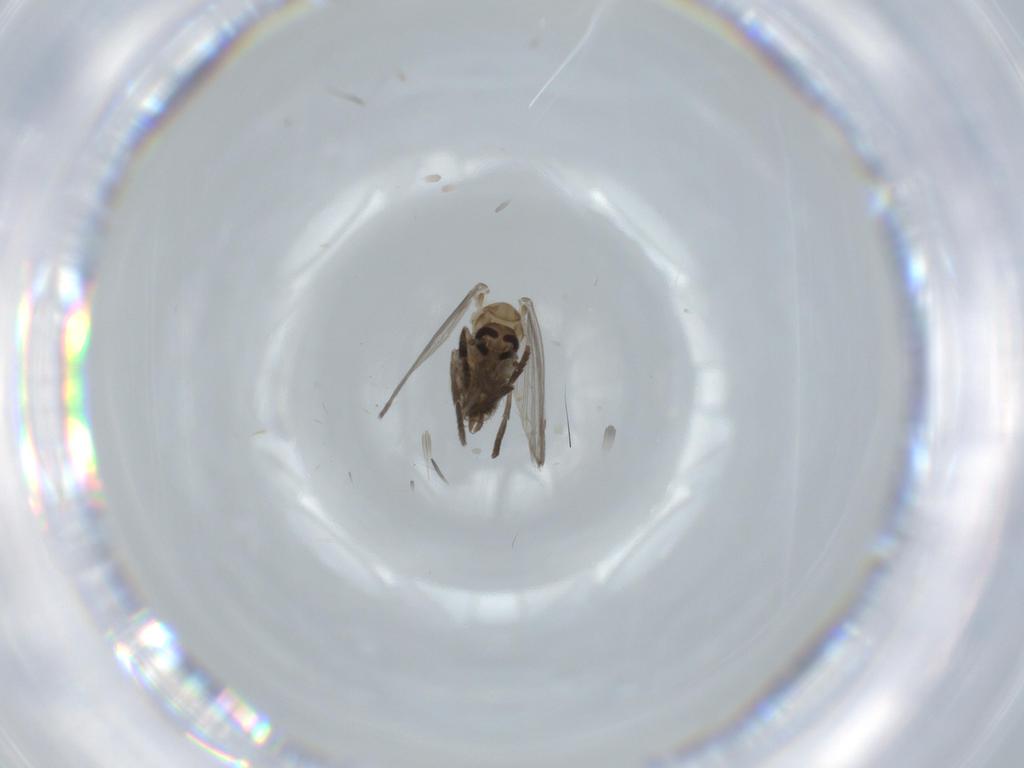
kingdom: Animalia
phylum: Arthropoda
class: Insecta
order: Diptera
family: Psychodidae
